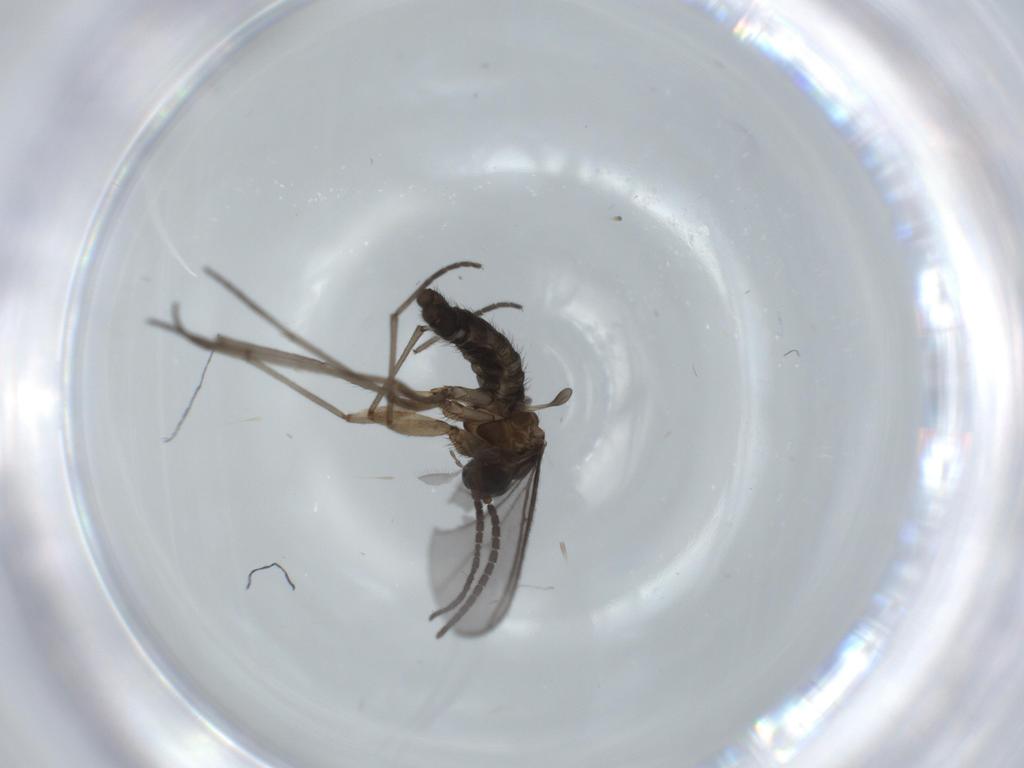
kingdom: Animalia
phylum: Arthropoda
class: Insecta
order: Diptera
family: Sciaridae
